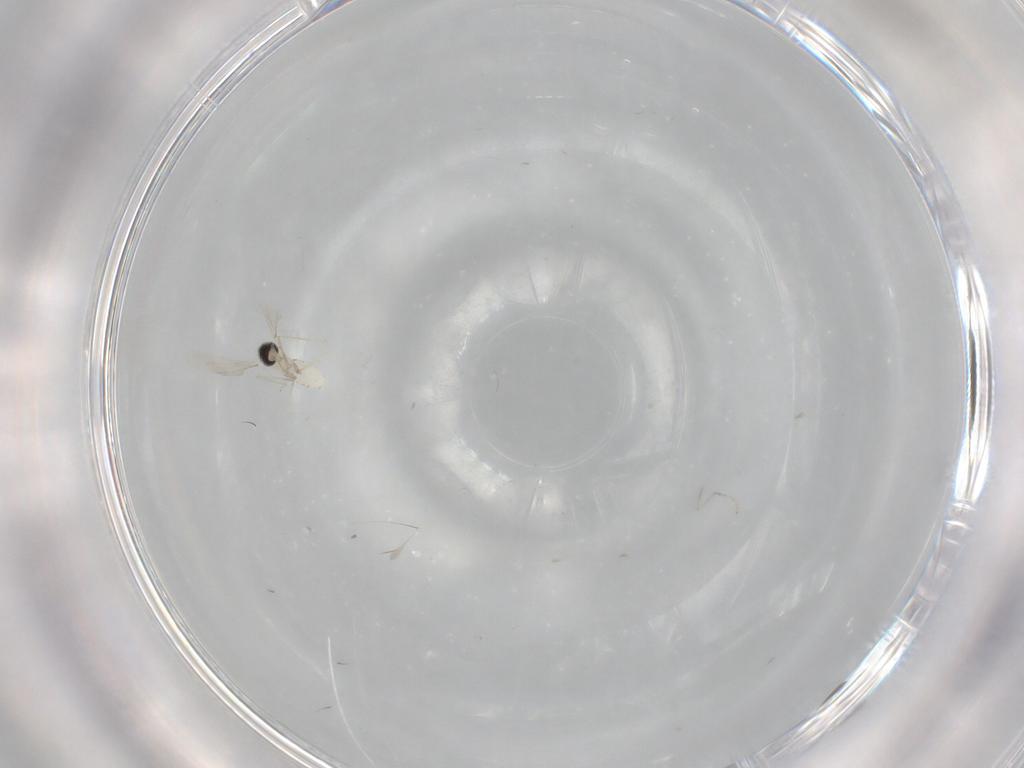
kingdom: Animalia
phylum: Arthropoda
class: Insecta
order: Diptera
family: Cecidomyiidae
